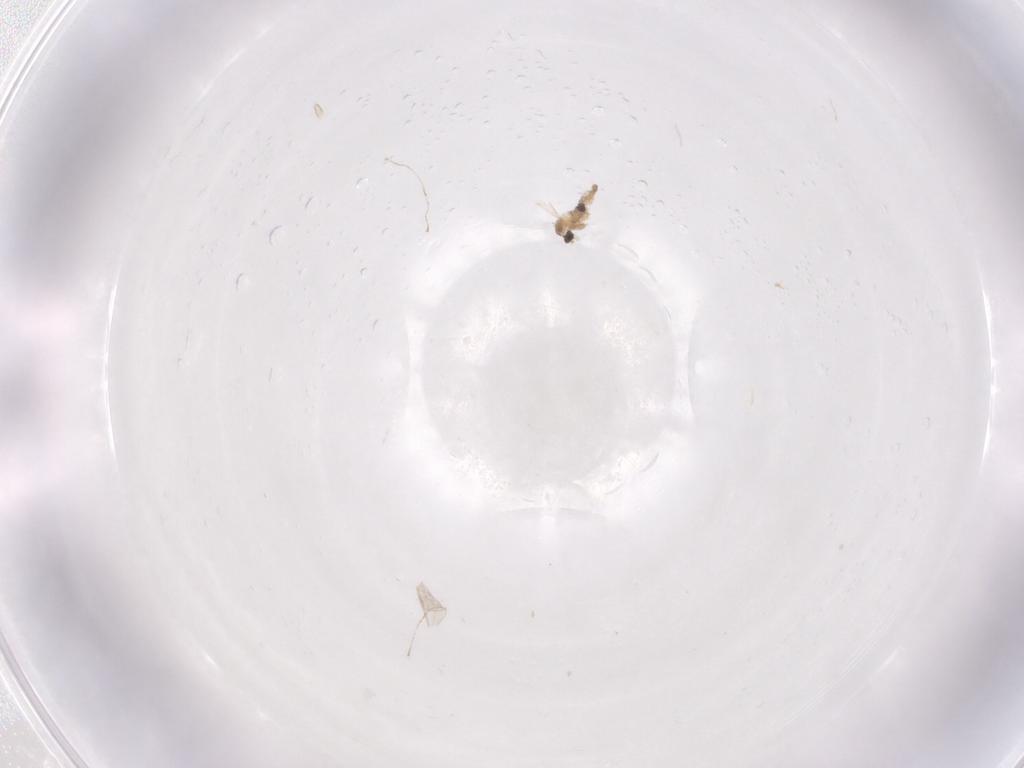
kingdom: Animalia
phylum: Arthropoda
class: Insecta
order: Diptera
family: Cecidomyiidae
